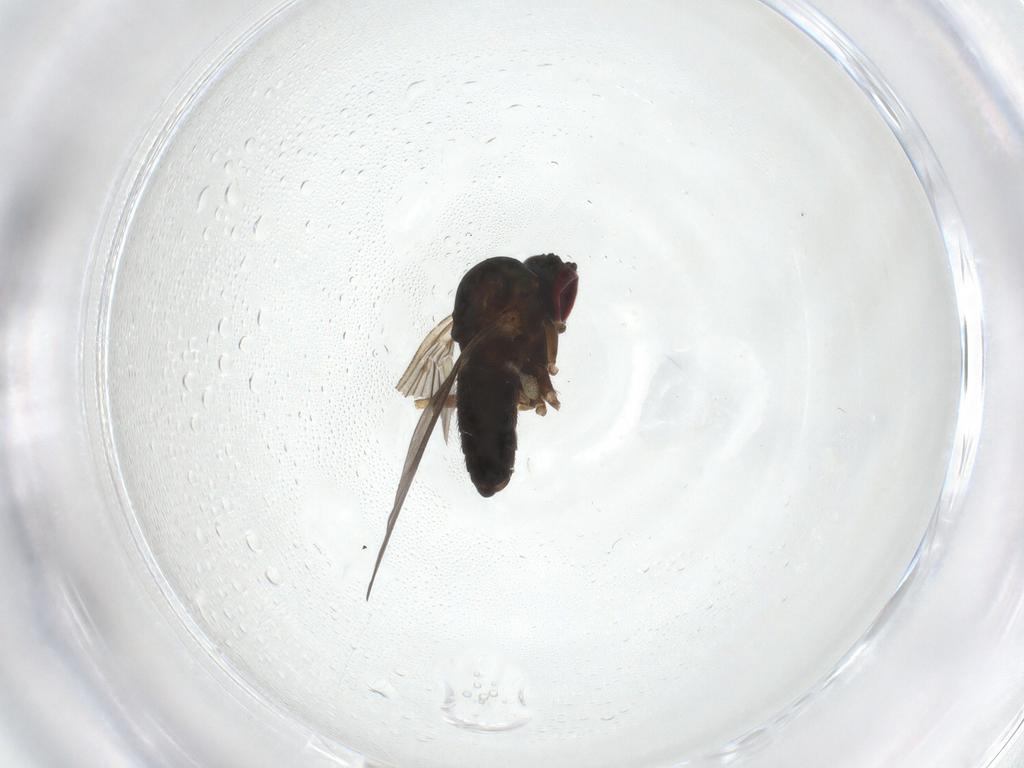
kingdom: Animalia
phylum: Arthropoda
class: Insecta
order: Diptera
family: Dolichopodidae
